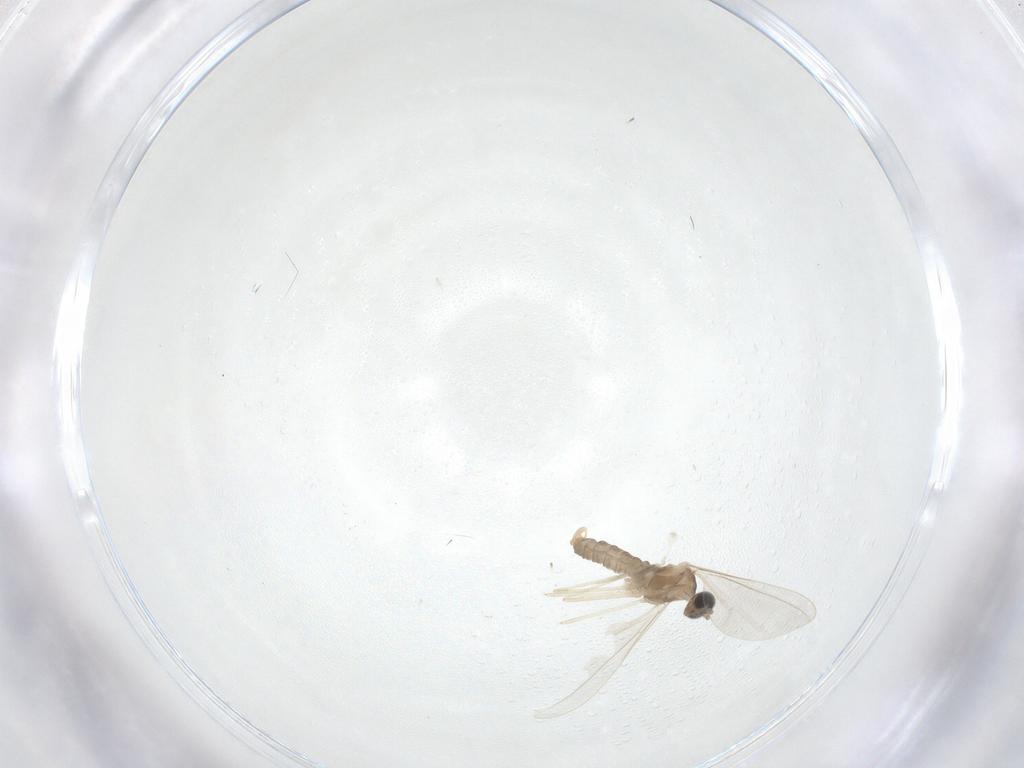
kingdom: Animalia
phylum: Arthropoda
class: Insecta
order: Diptera
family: Cecidomyiidae
